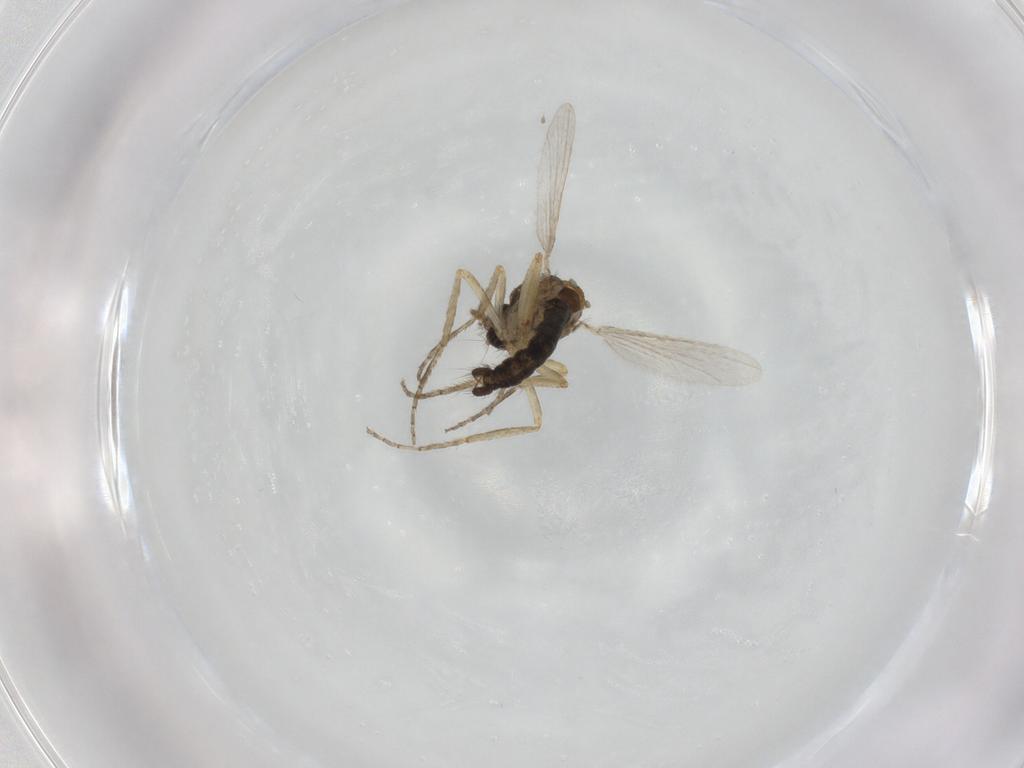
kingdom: Animalia
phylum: Arthropoda
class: Insecta
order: Diptera
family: Ceratopogonidae
